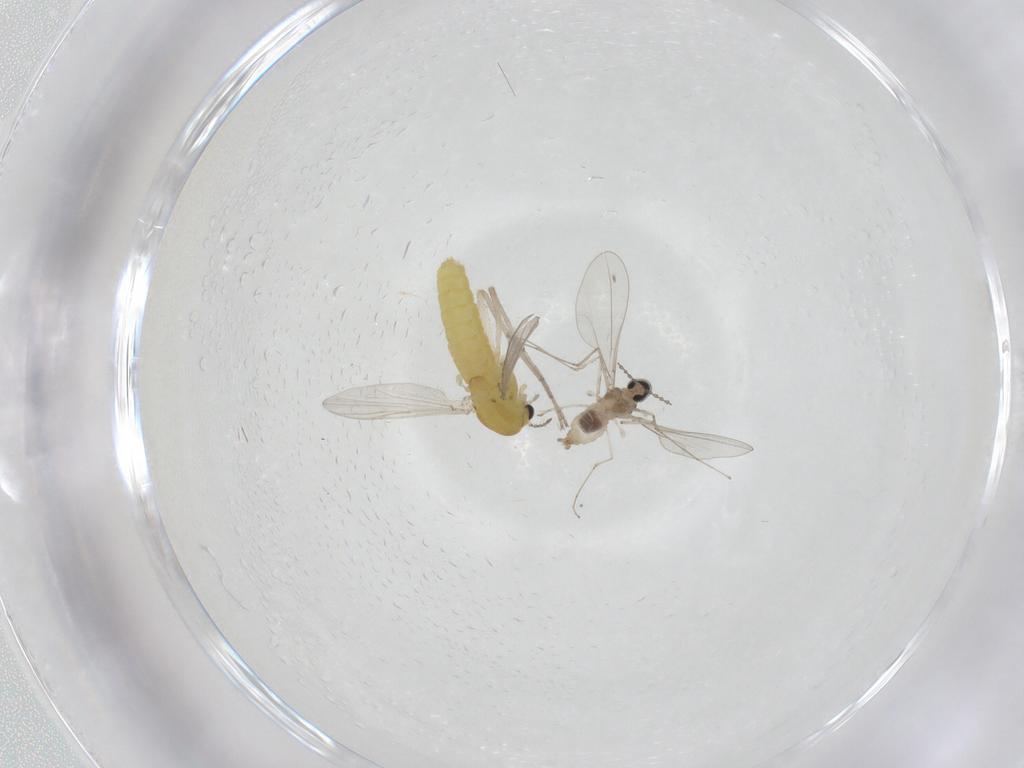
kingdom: Animalia
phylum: Arthropoda
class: Insecta
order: Diptera
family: Chironomidae
